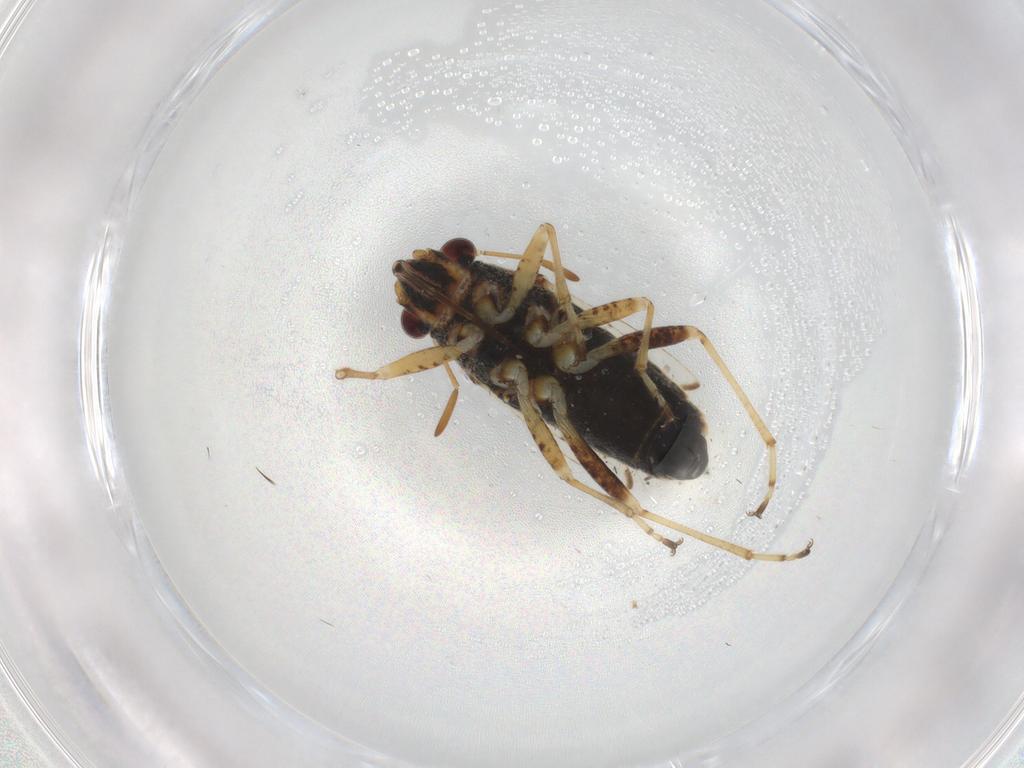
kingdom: Animalia
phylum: Arthropoda
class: Insecta
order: Hemiptera
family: Lygaeidae
